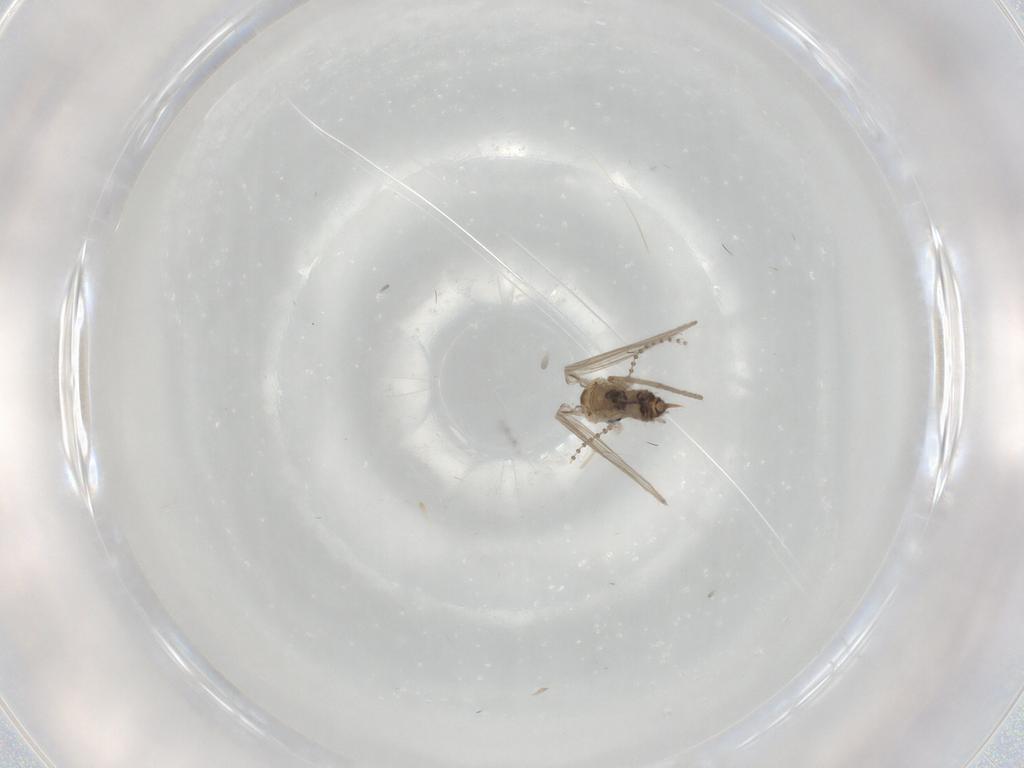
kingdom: Animalia
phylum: Arthropoda
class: Insecta
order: Diptera
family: Psychodidae
